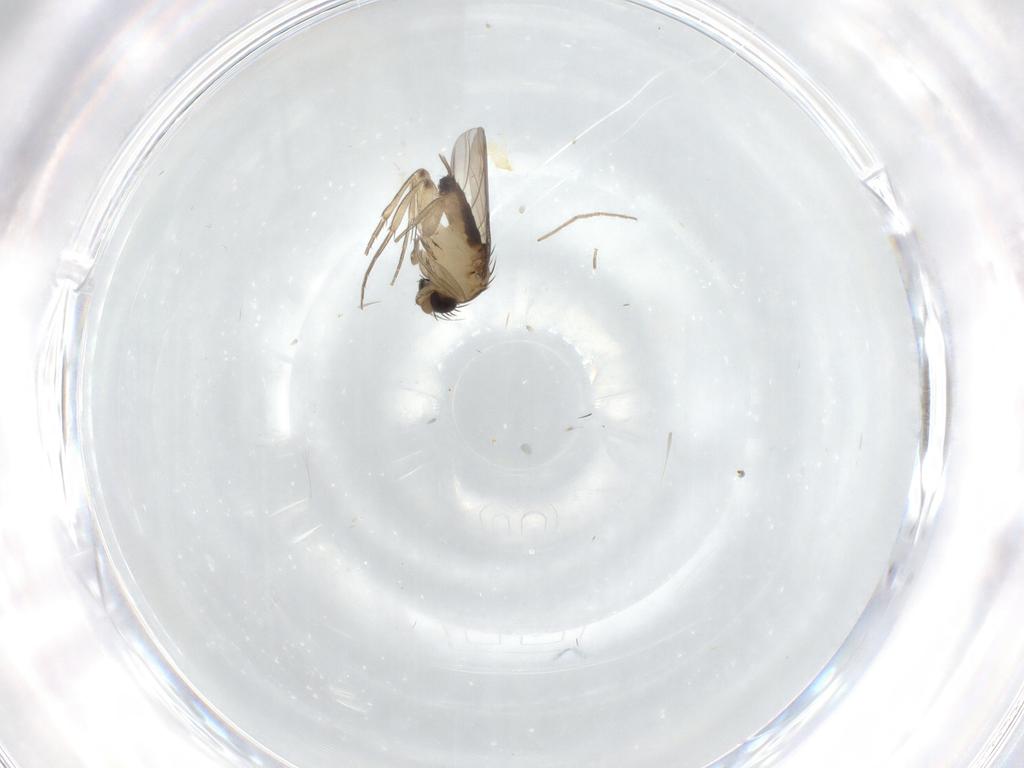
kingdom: Animalia
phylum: Arthropoda
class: Insecta
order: Diptera
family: Phoridae
